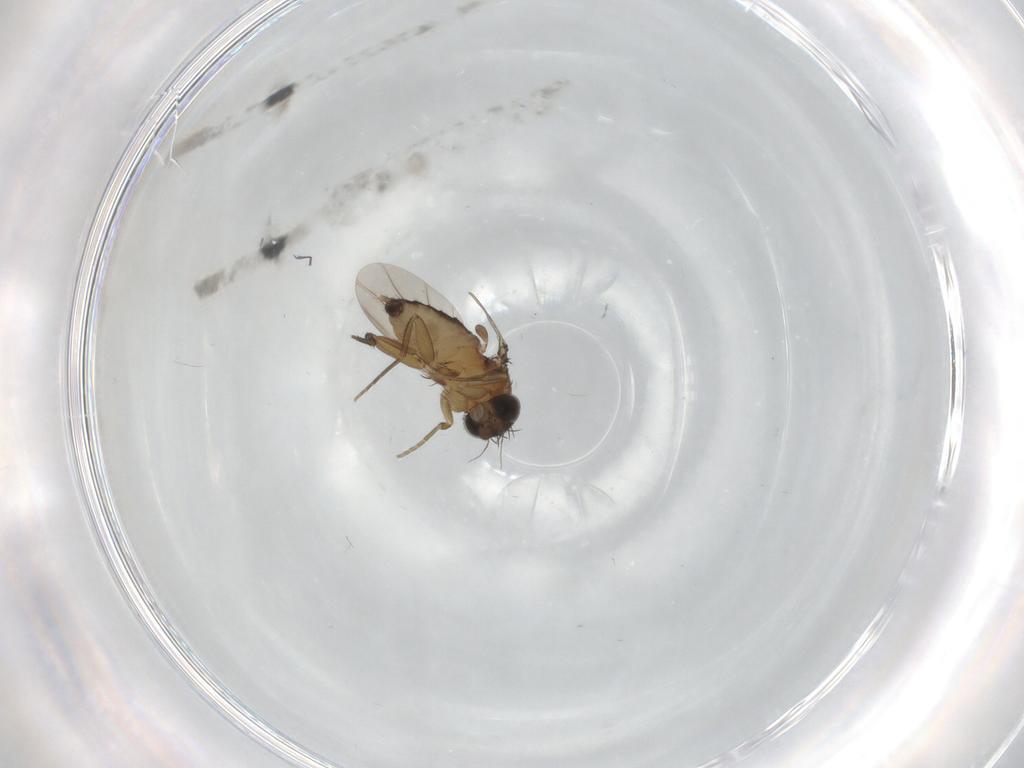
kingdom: Animalia
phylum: Arthropoda
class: Insecta
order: Diptera
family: Phoridae
